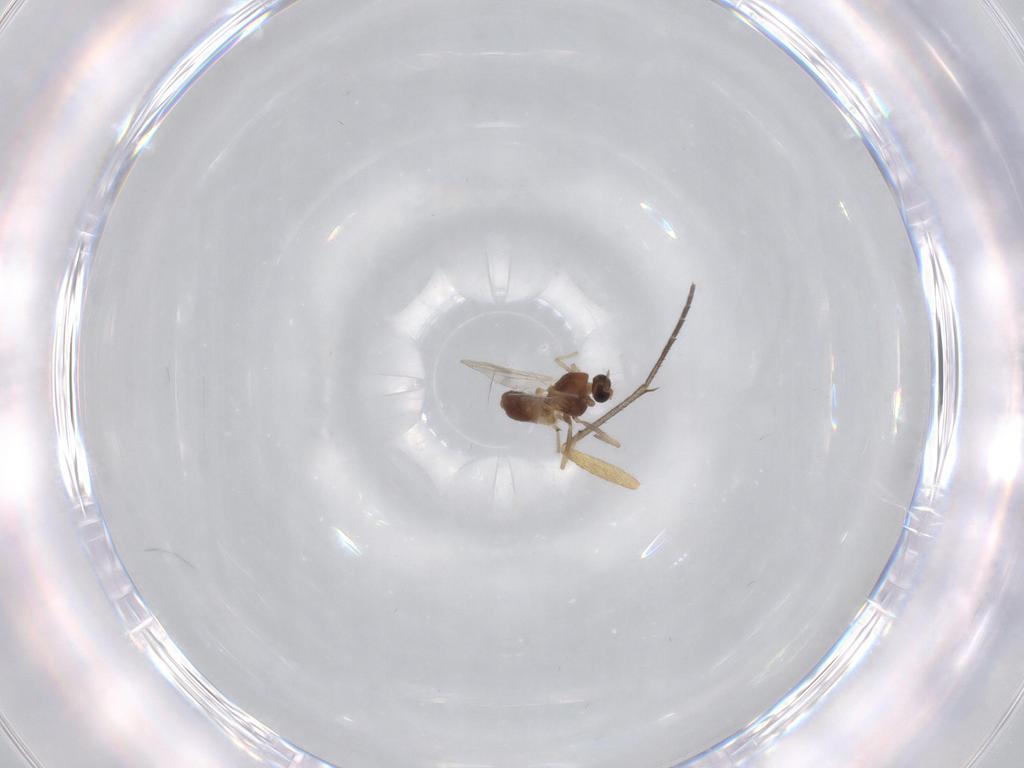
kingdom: Animalia
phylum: Arthropoda
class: Insecta
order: Diptera
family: Chironomidae
